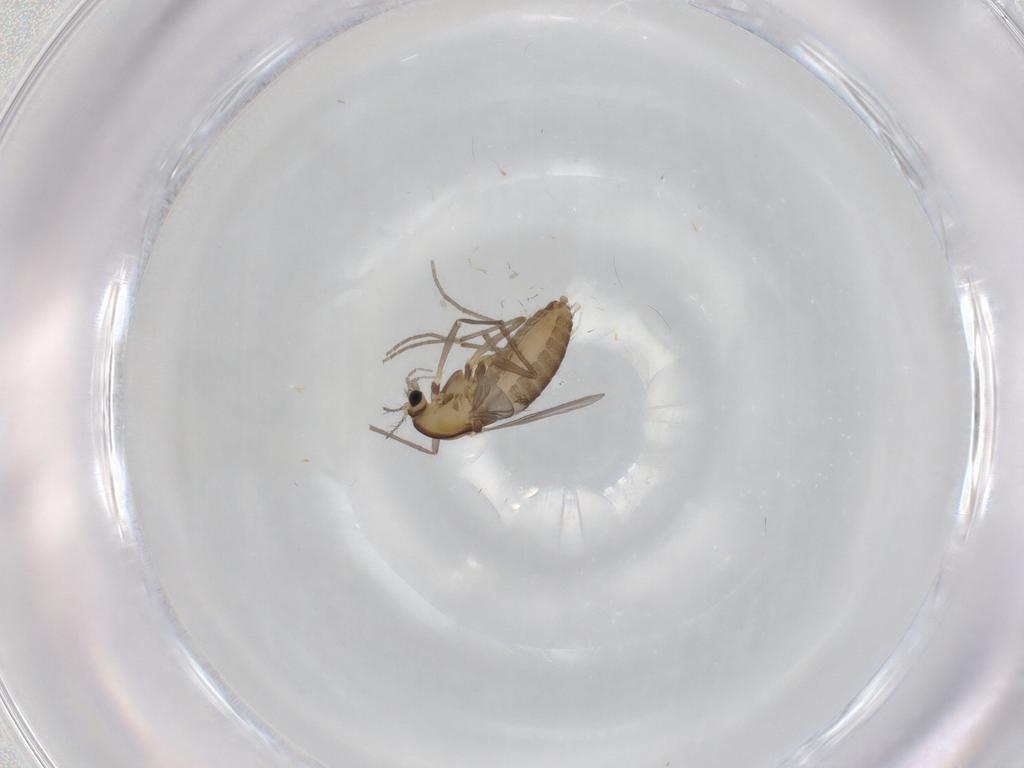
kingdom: Animalia
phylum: Arthropoda
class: Insecta
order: Diptera
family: Chironomidae
